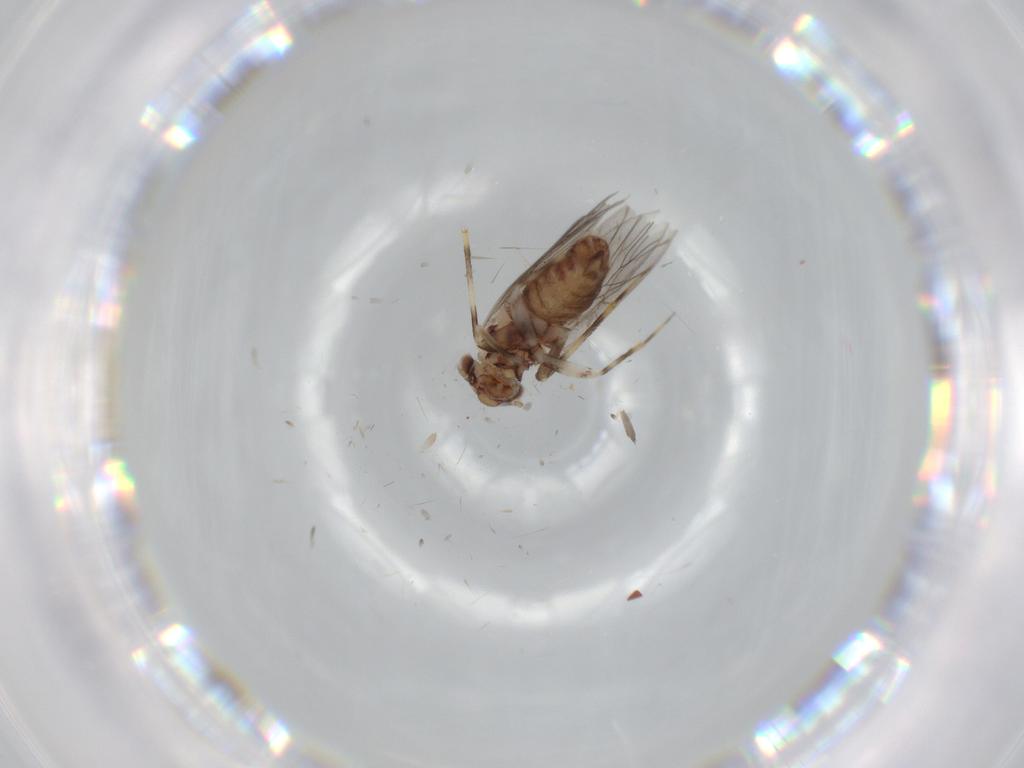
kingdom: Animalia
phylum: Arthropoda
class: Insecta
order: Psocodea
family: Lepidopsocidae
